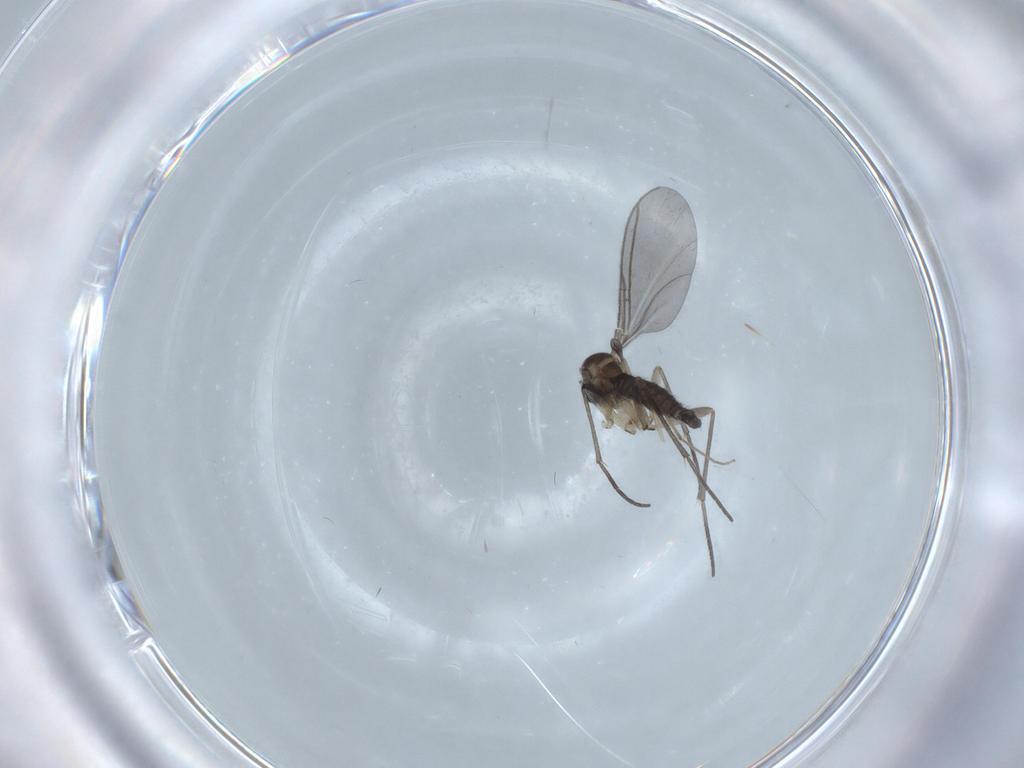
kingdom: Animalia
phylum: Arthropoda
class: Insecta
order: Diptera
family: Sciaridae
